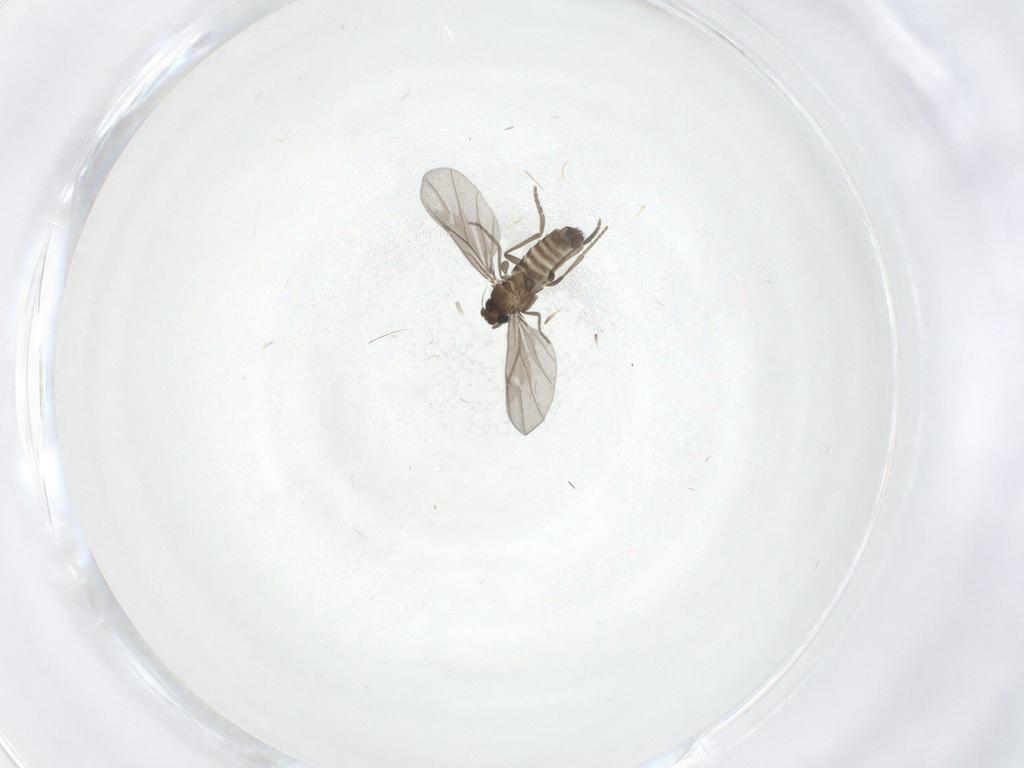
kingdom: Animalia
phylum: Arthropoda
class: Insecta
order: Diptera
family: Phoridae
